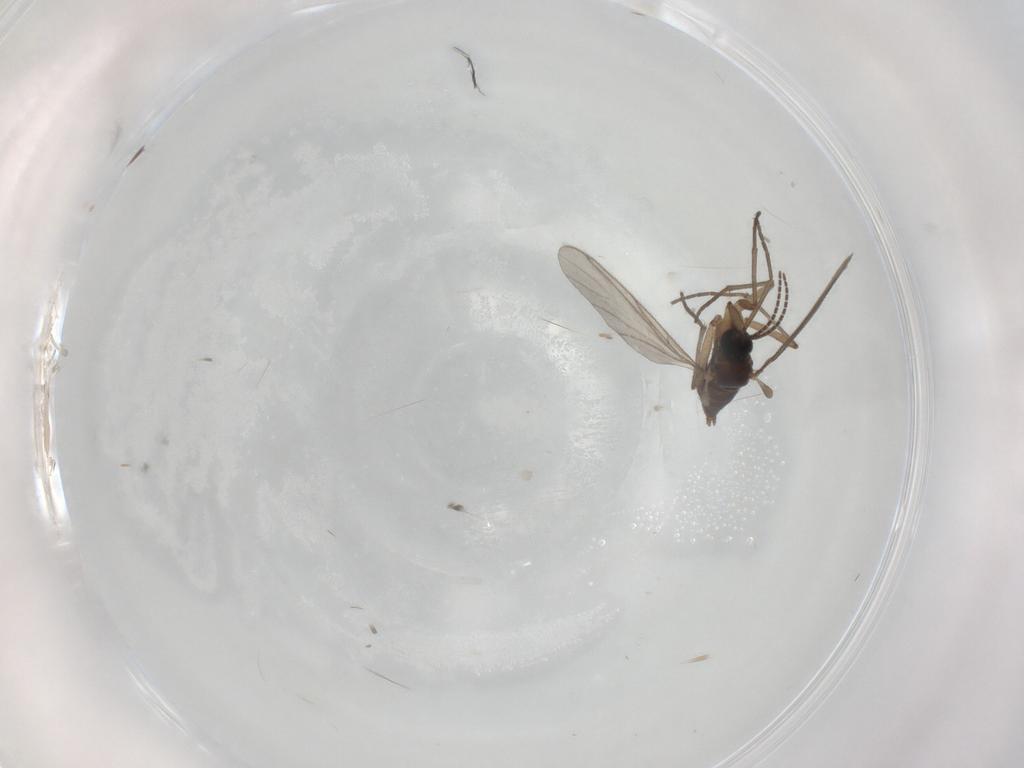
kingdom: Animalia
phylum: Arthropoda
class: Insecta
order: Diptera
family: Sciaridae
